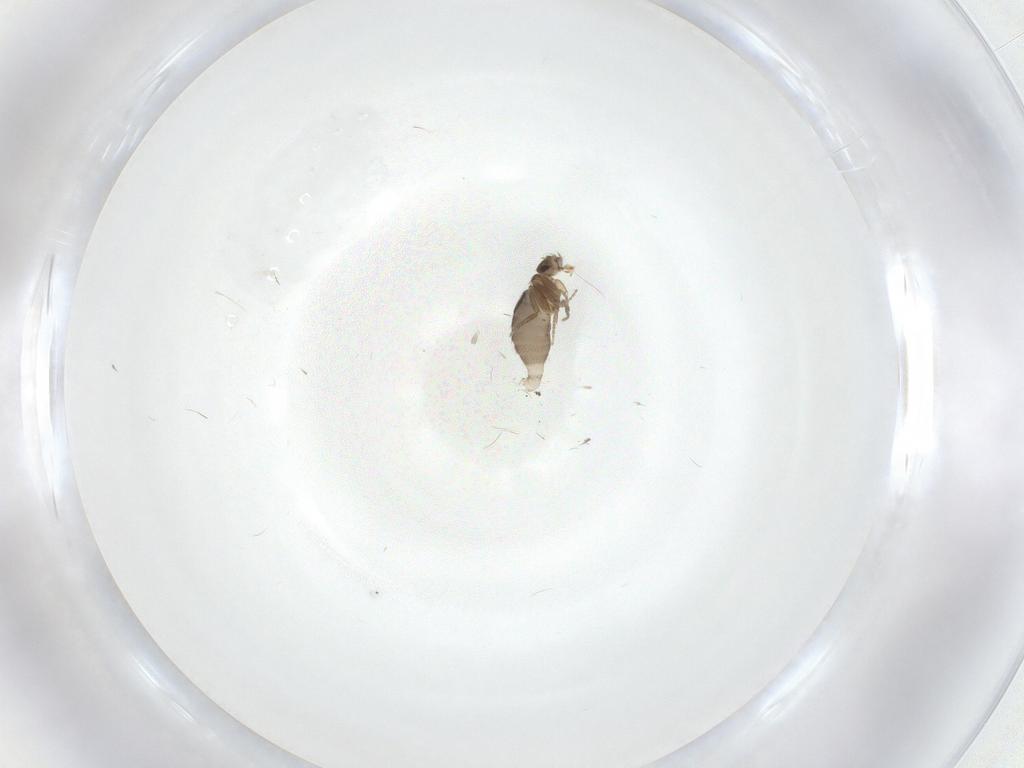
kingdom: Animalia
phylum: Arthropoda
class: Insecta
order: Diptera
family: Phoridae
